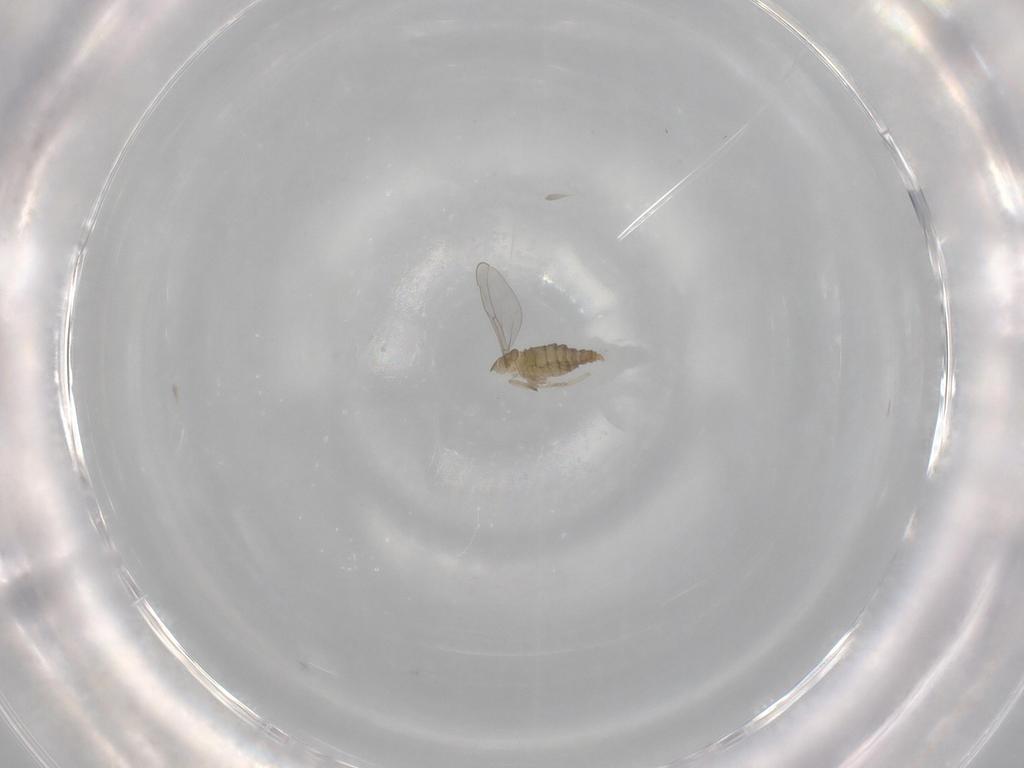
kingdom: Animalia
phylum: Arthropoda
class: Insecta
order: Diptera
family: Cecidomyiidae
